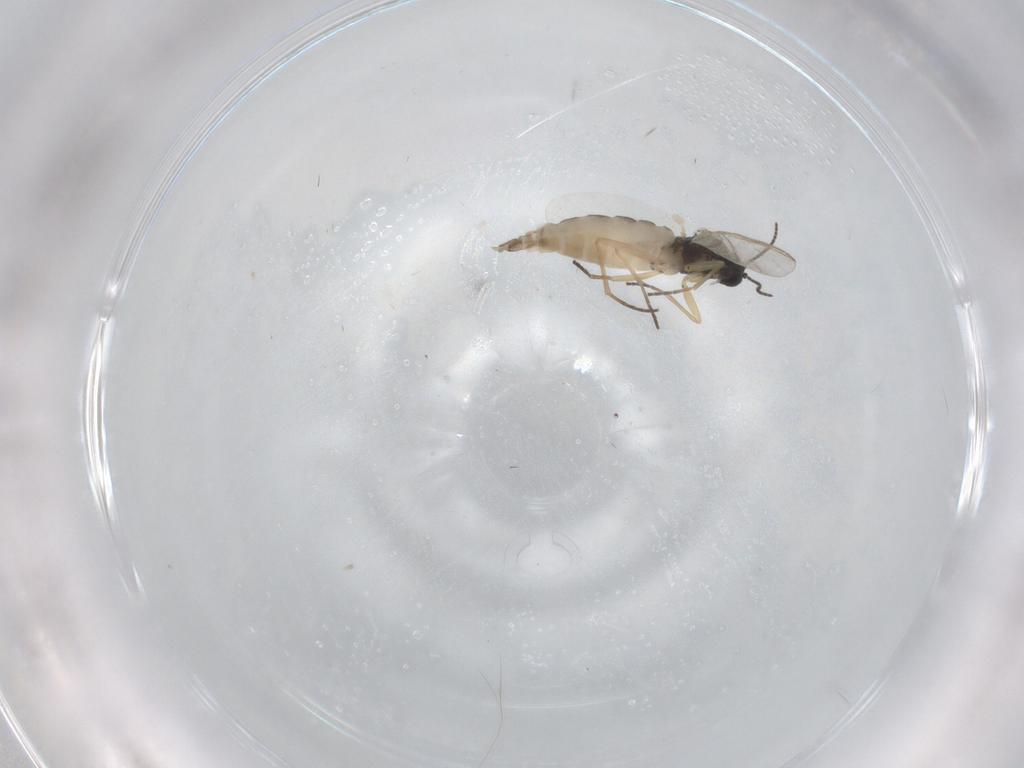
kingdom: Animalia
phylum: Arthropoda
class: Insecta
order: Diptera
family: Sciaridae
